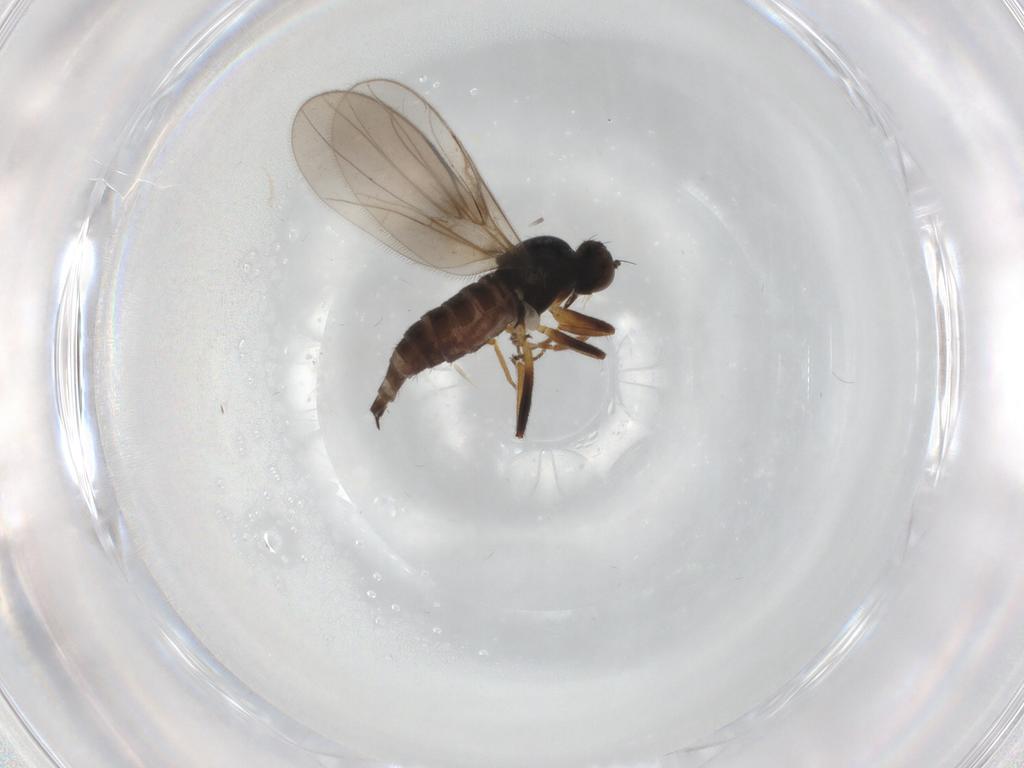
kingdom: Animalia
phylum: Arthropoda
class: Insecta
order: Diptera
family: Hybotidae
